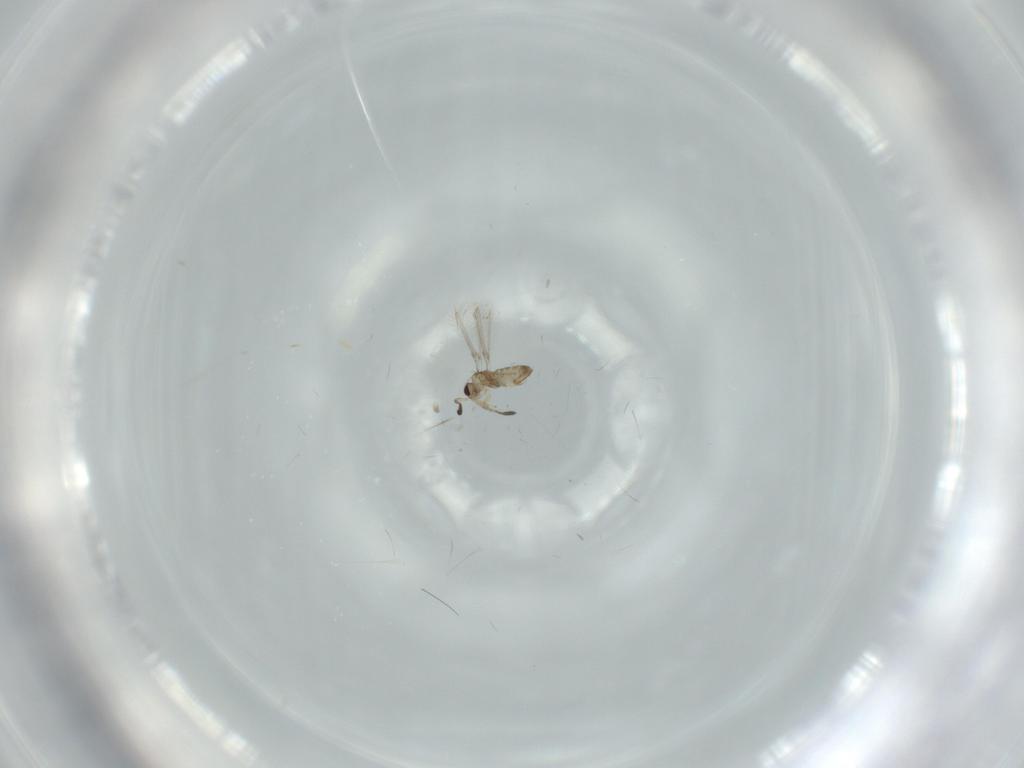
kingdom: Animalia
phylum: Arthropoda
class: Insecta
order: Hymenoptera
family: Mymaridae
